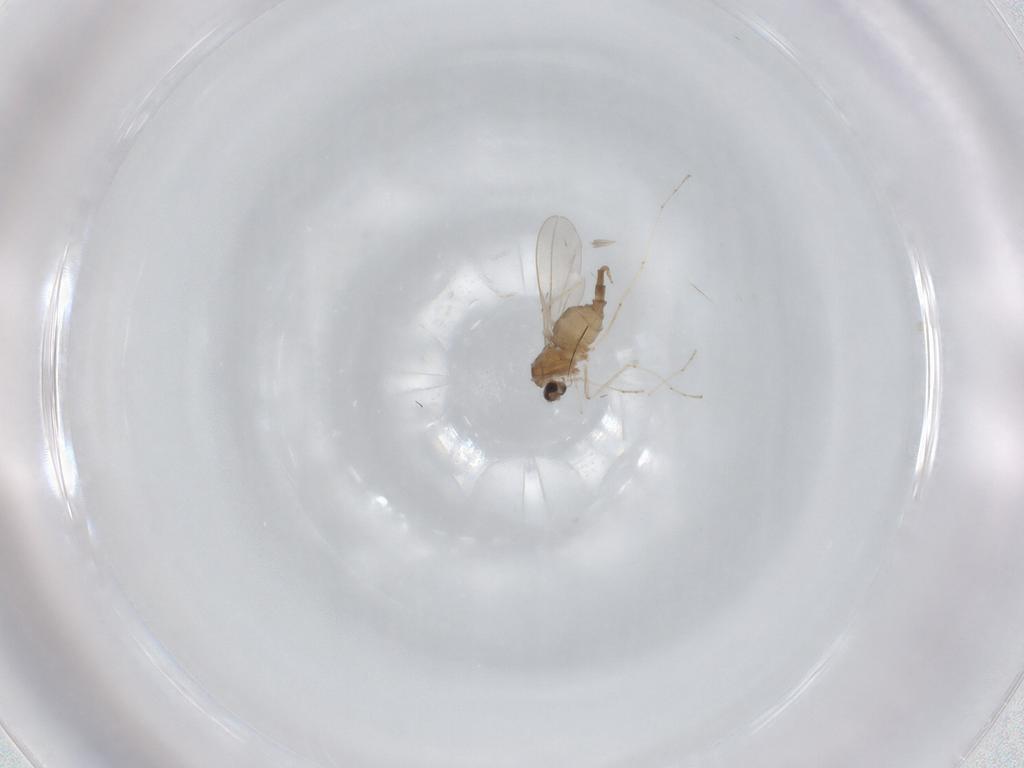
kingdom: Animalia
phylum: Arthropoda
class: Insecta
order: Diptera
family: Cecidomyiidae
